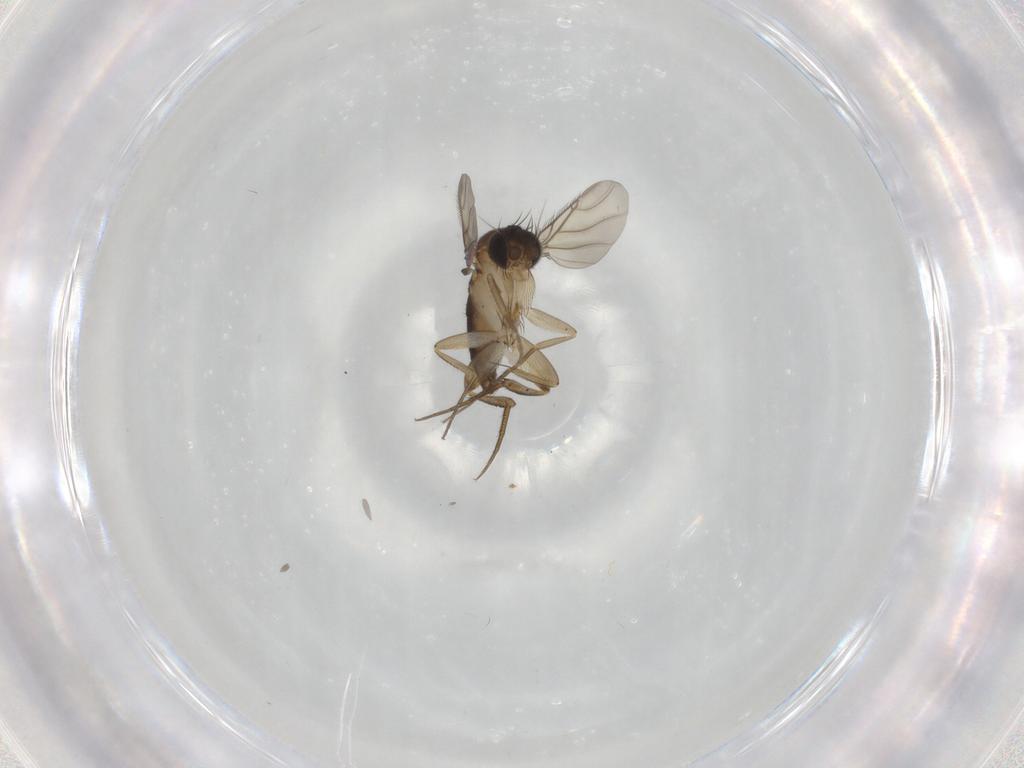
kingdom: Animalia
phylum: Arthropoda
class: Insecta
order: Diptera
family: Phoridae
